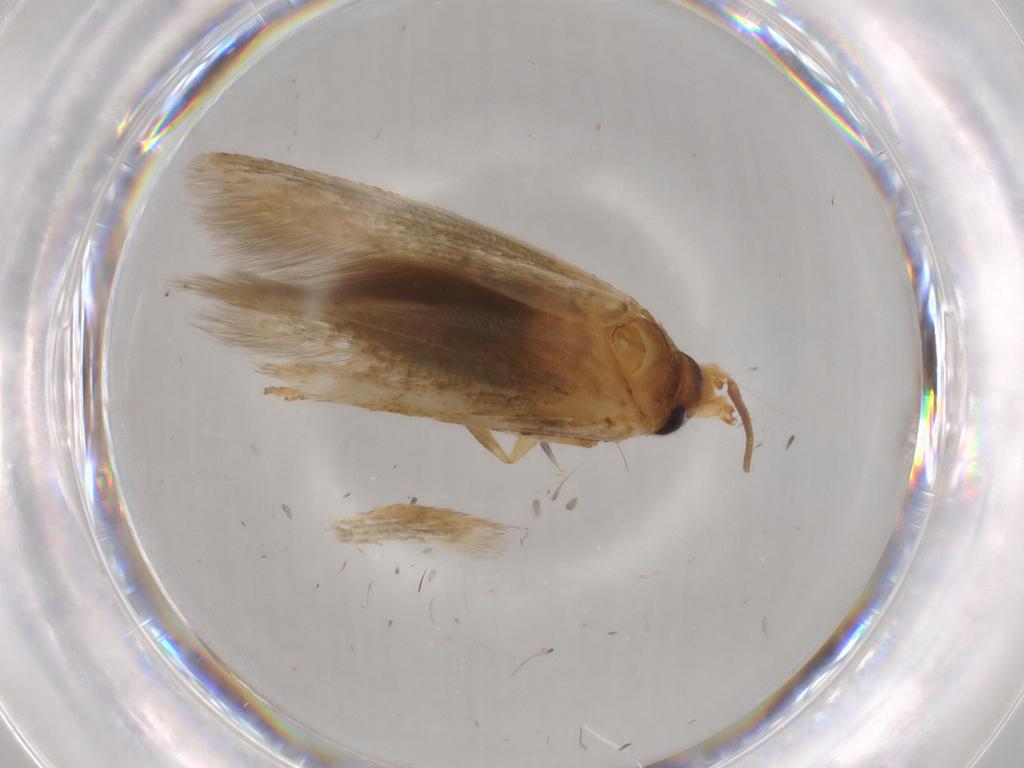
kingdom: Animalia
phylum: Arthropoda
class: Insecta
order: Lepidoptera
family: Blastobasidae
